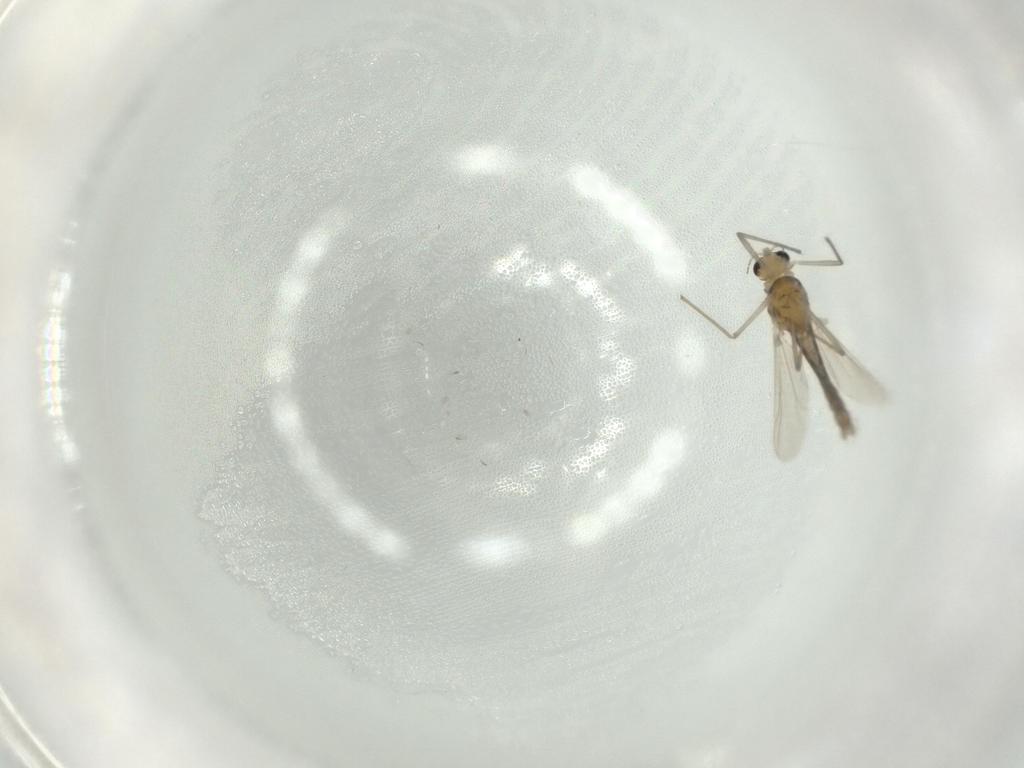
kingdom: Animalia
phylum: Arthropoda
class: Insecta
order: Diptera
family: Chironomidae
